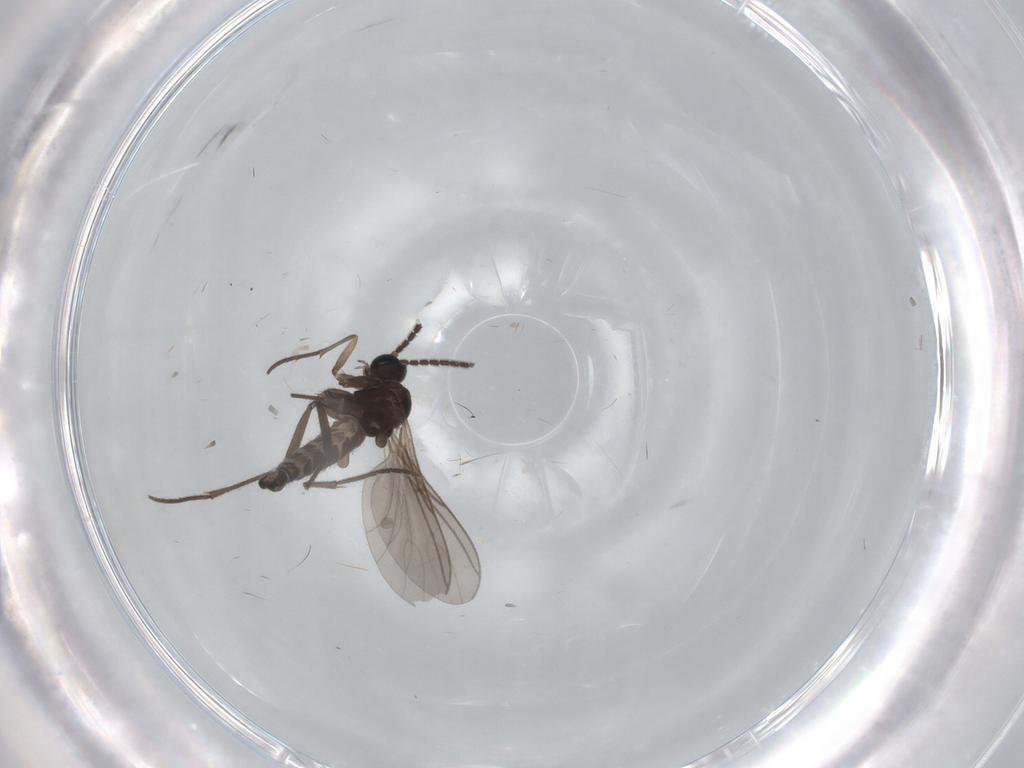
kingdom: Animalia
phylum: Arthropoda
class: Insecta
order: Diptera
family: Sciaridae
